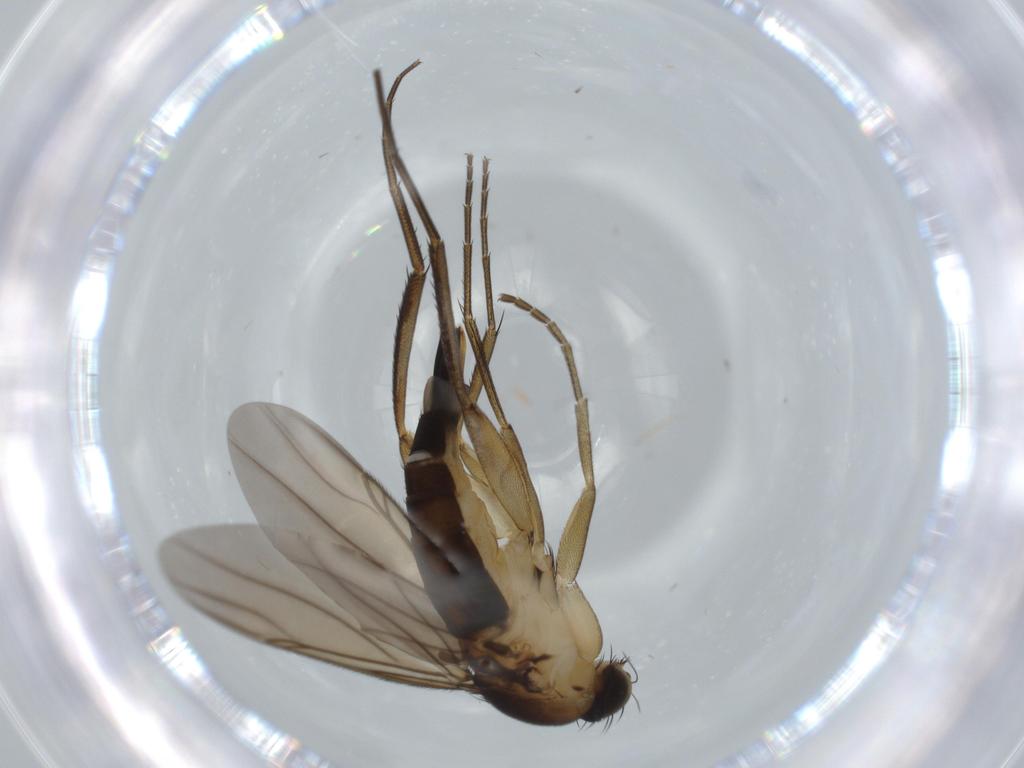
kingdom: Animalia
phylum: Arthropoda
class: Insecta
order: Diptera
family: Phoridae
